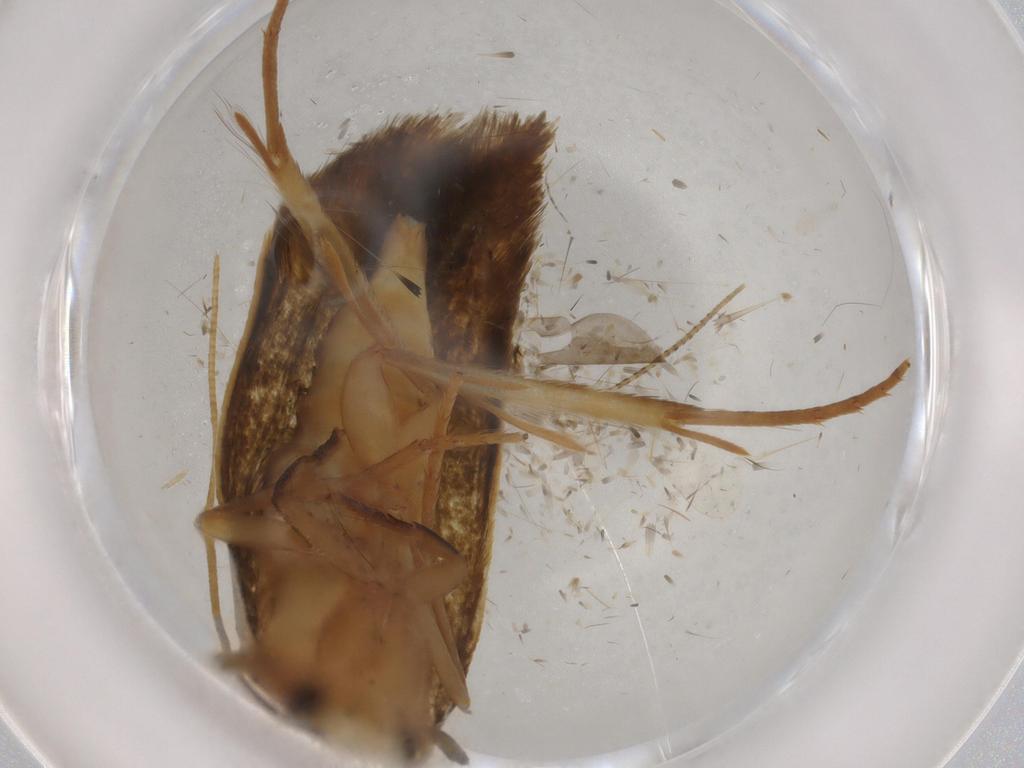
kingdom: Animalia
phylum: Arthropoda
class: Insecta
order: Lepidoptera
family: Tineidae
